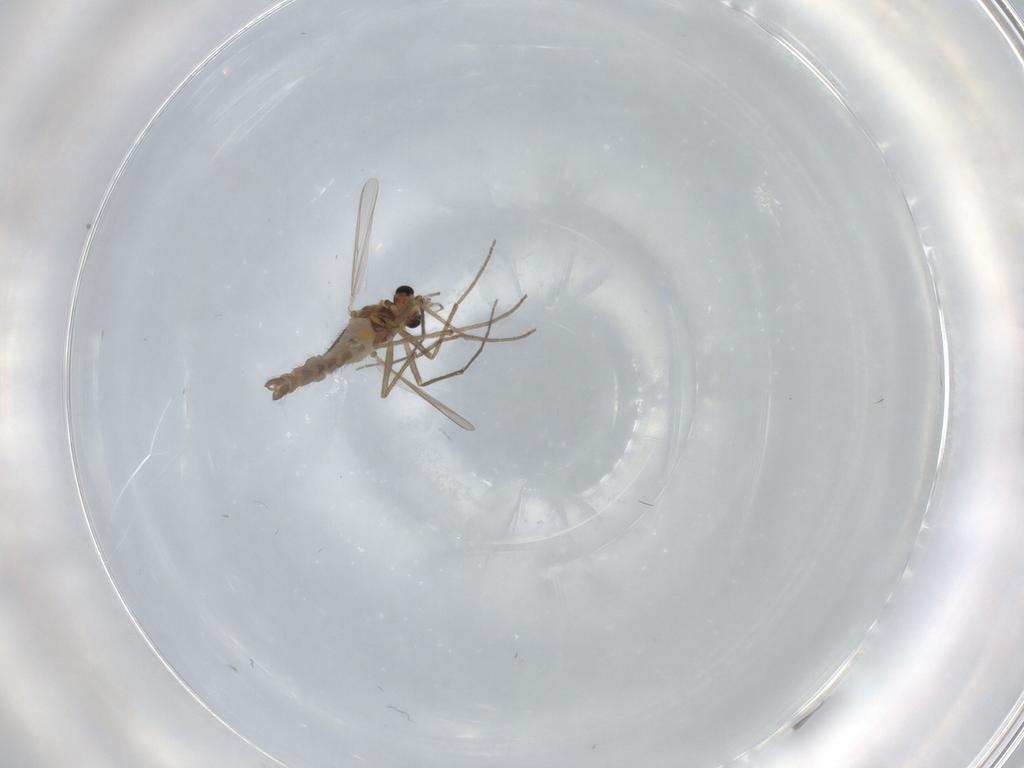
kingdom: Animalia
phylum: Arthropoda
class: Insecta
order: Diptera
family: Chironomidae
